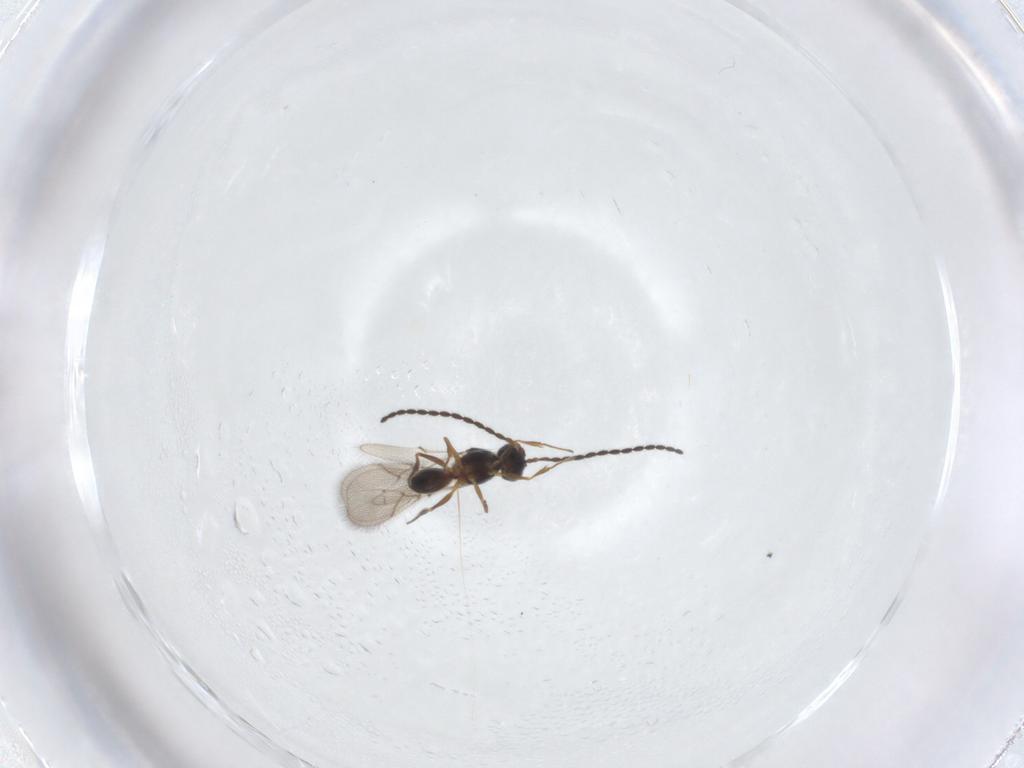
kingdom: Animalia
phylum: Arthropoda
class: Insecta
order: Hymenoptera
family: Figitidae
